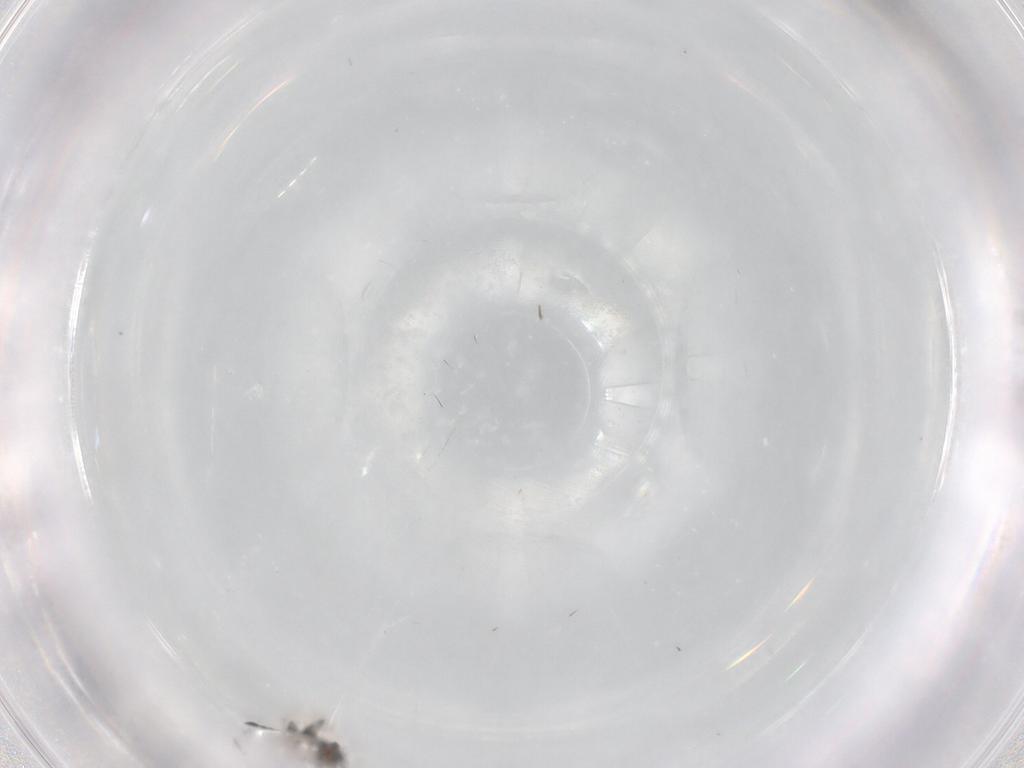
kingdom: Animalia
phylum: Arthropoda
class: Insecta
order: Hymenoptera
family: Diapriidae
